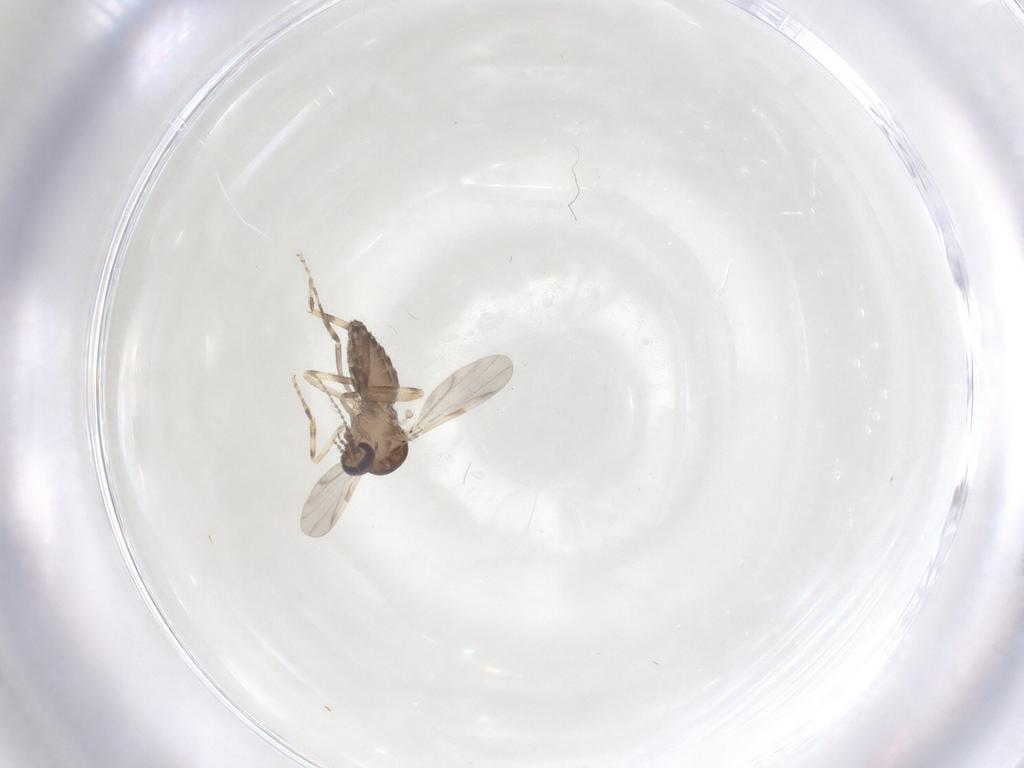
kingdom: Animalia
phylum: Arthropoda
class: Insecta
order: Diptera
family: Ceratopogonidae
